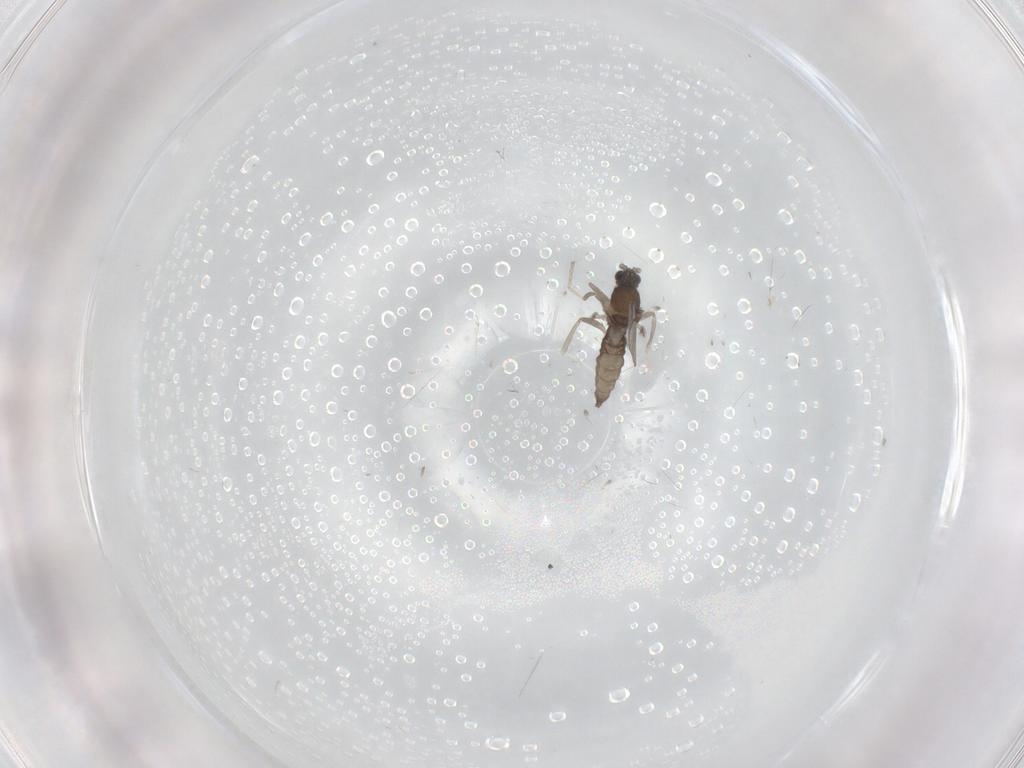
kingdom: Animalia
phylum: Arthropoda
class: Insecta
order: Diptera
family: Cecidomyiidae
